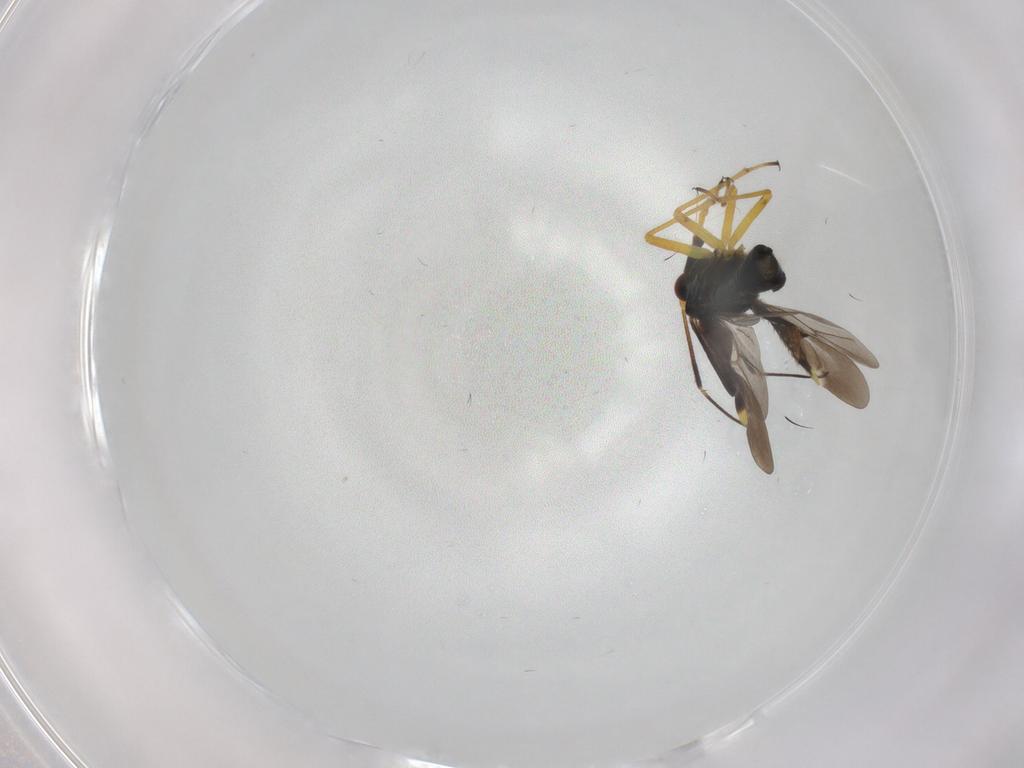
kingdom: Animalia
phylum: Arthropoda
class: Insecta
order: Hemiptera
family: Miridae
